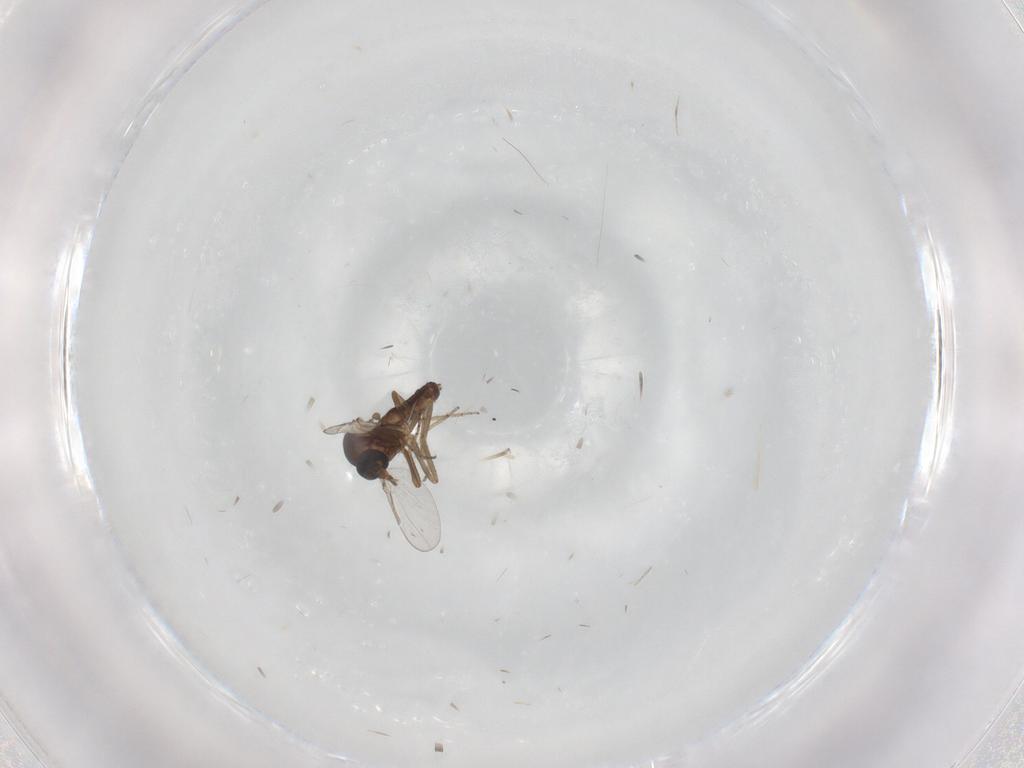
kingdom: Animalia
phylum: Arthropoda
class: Insecta
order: Diptera
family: Ceratopogonidae
